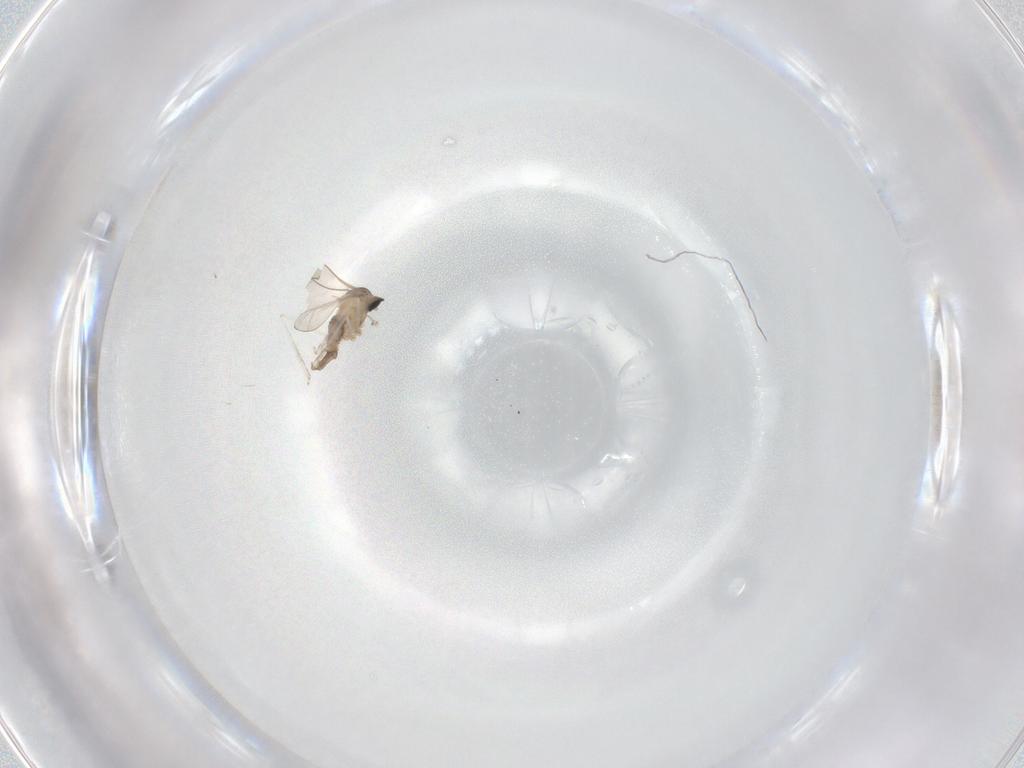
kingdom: Animalia
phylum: Arthropoda
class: Insecta
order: Diptera
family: Cecidomyiidae
